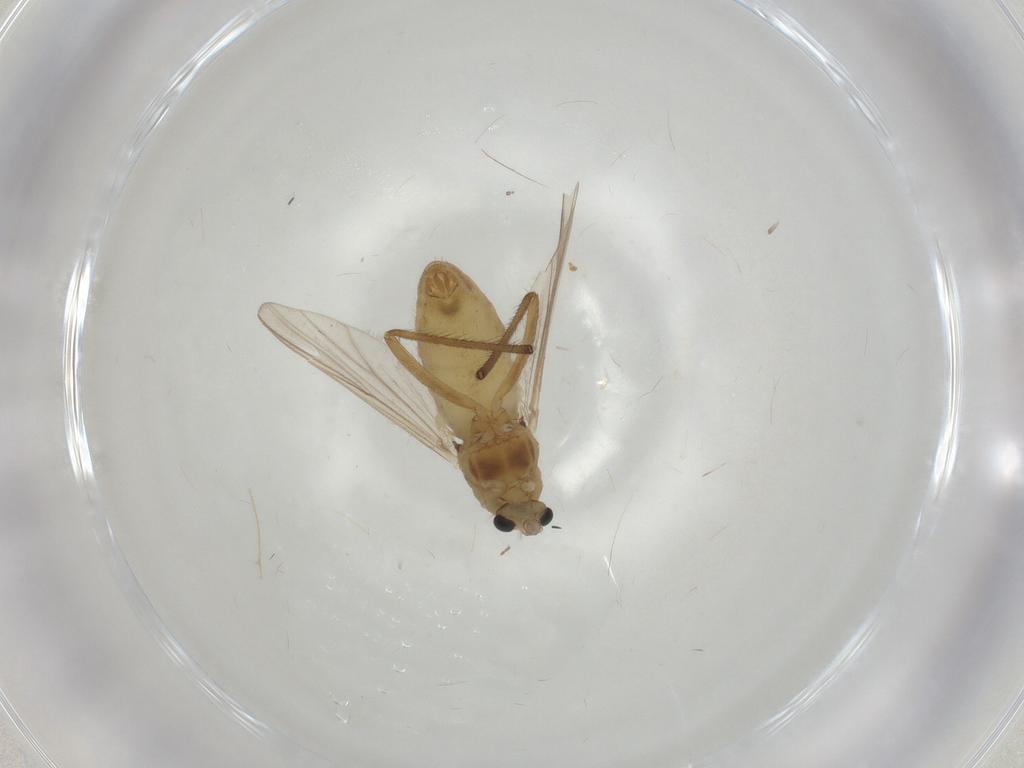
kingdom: Animalia
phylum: Arthropoda
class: Insecta
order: Diptera
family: Chironomidae
